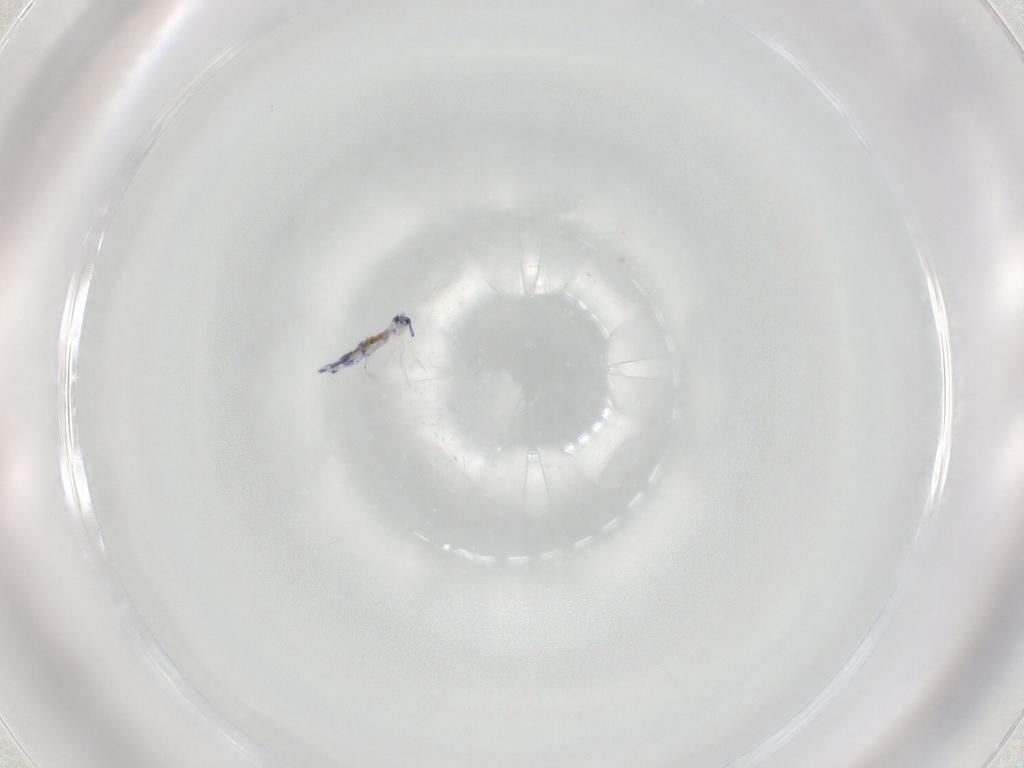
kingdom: Animalia
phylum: Arthropoda
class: Collembola
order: Entomobryomorpha
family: Entomobryidae
